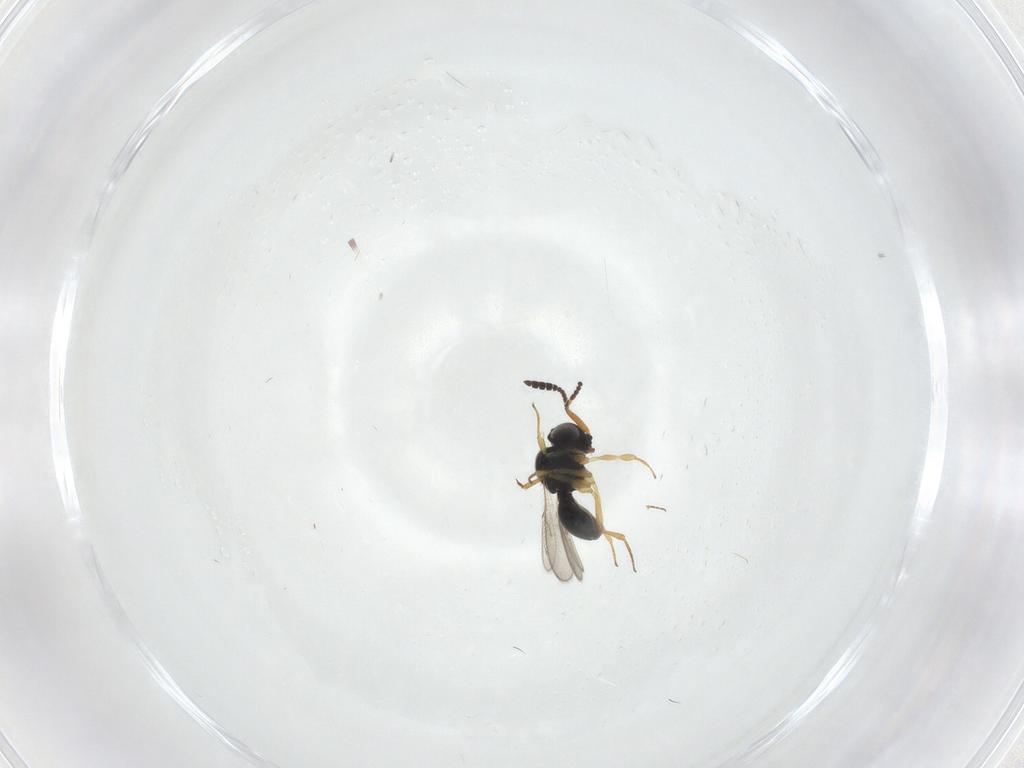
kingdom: Animalia
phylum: Arthropoda
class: Insecta
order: Hymenoptera
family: Scelionidae
